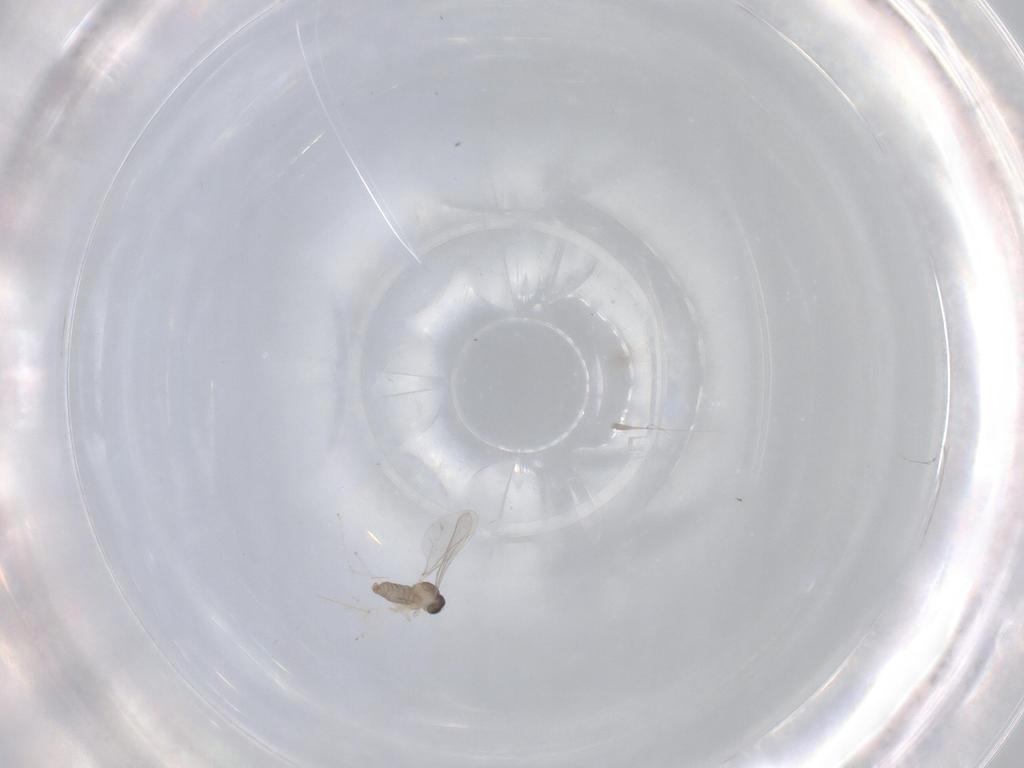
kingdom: Animalia
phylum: Arthropoda
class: Insecta
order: Diptera
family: Cecidomyiidae
